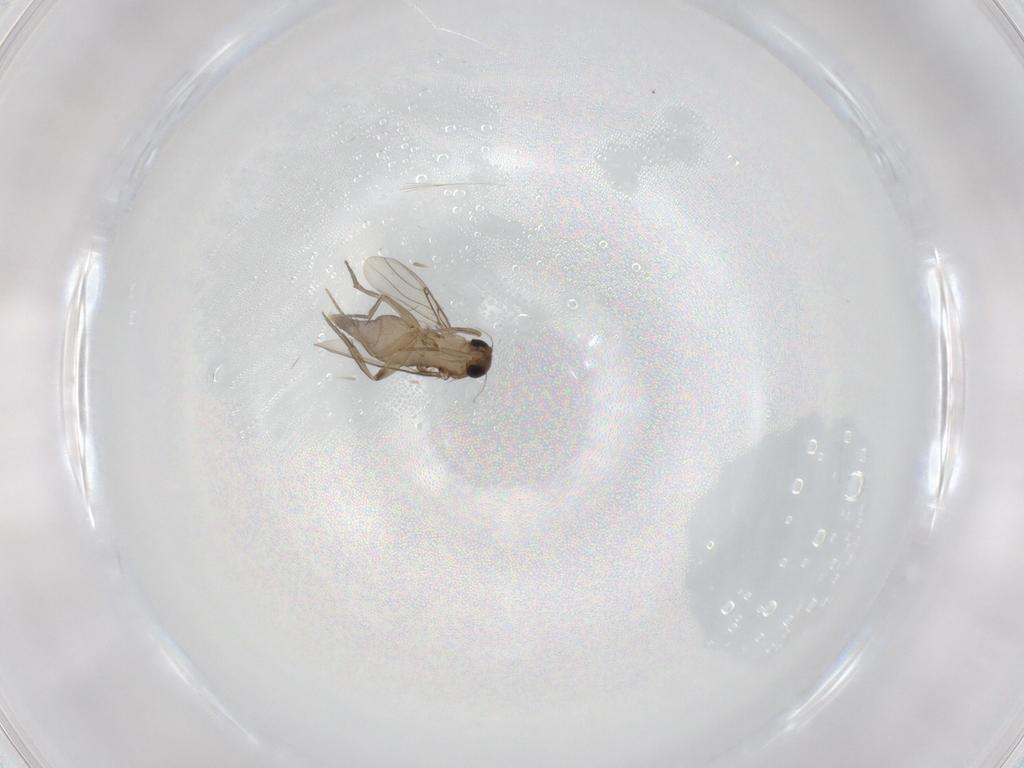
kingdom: Animalia
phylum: Arthropoda
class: Insecta
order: Diptera
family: Phoridae
